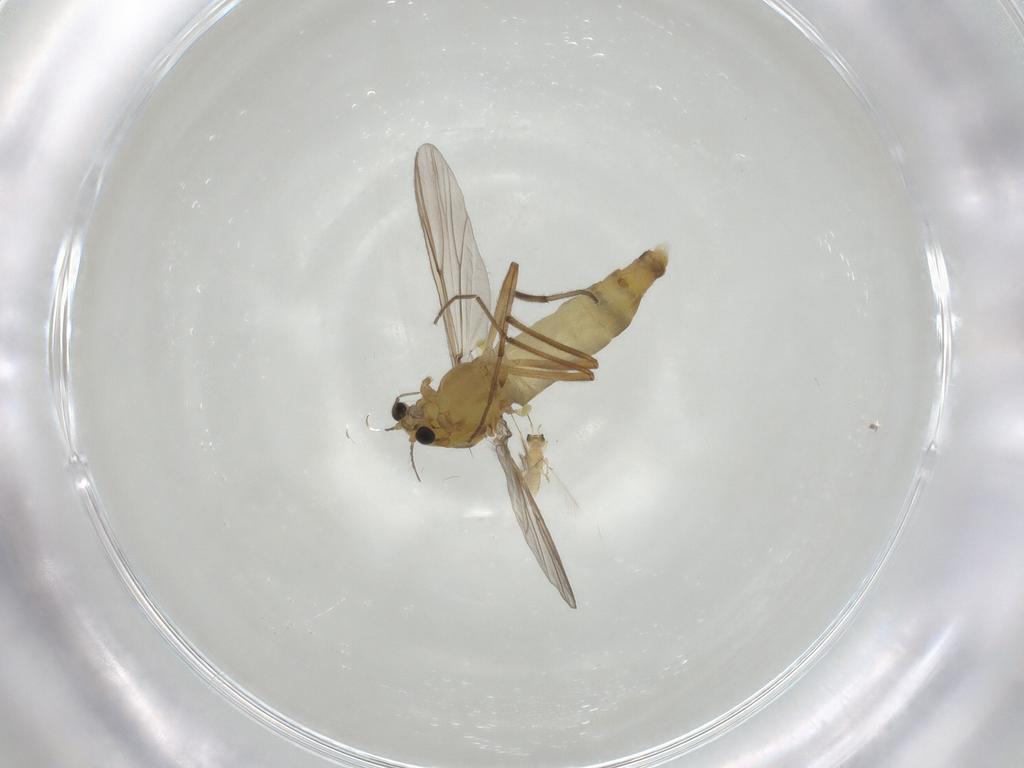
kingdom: Animalia
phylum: Arthropoda
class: Insecta
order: Diptera
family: Chironomidae
